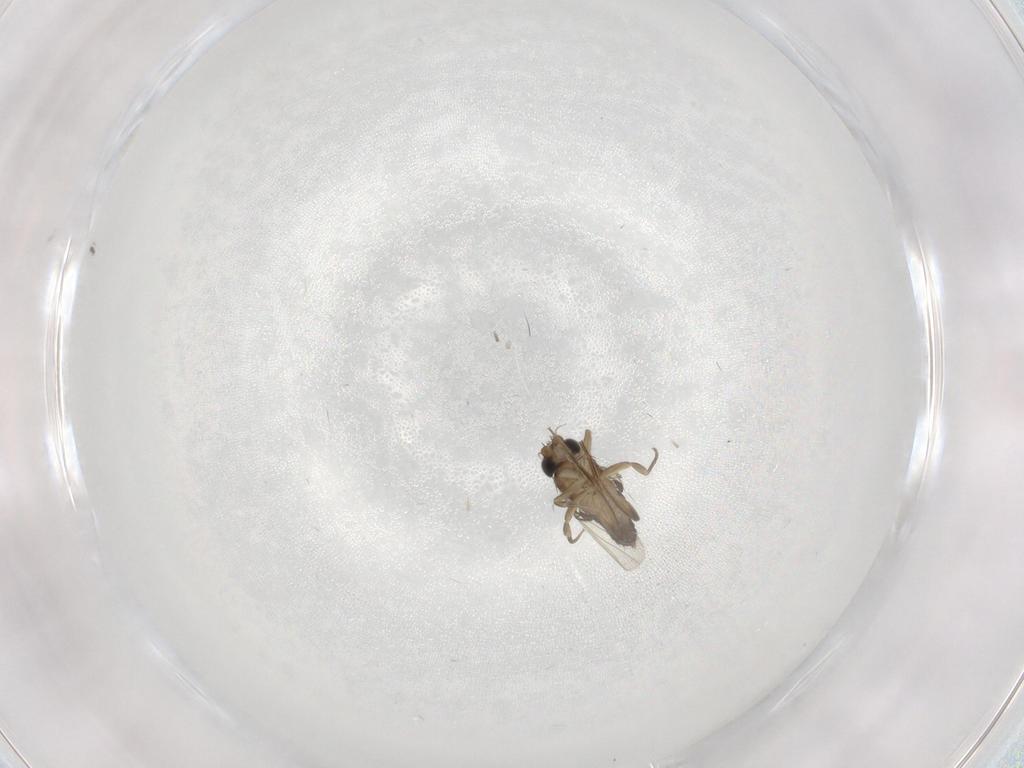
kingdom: Animalia
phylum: Arthropoda
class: Insecta
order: Diptera
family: Phoridae
